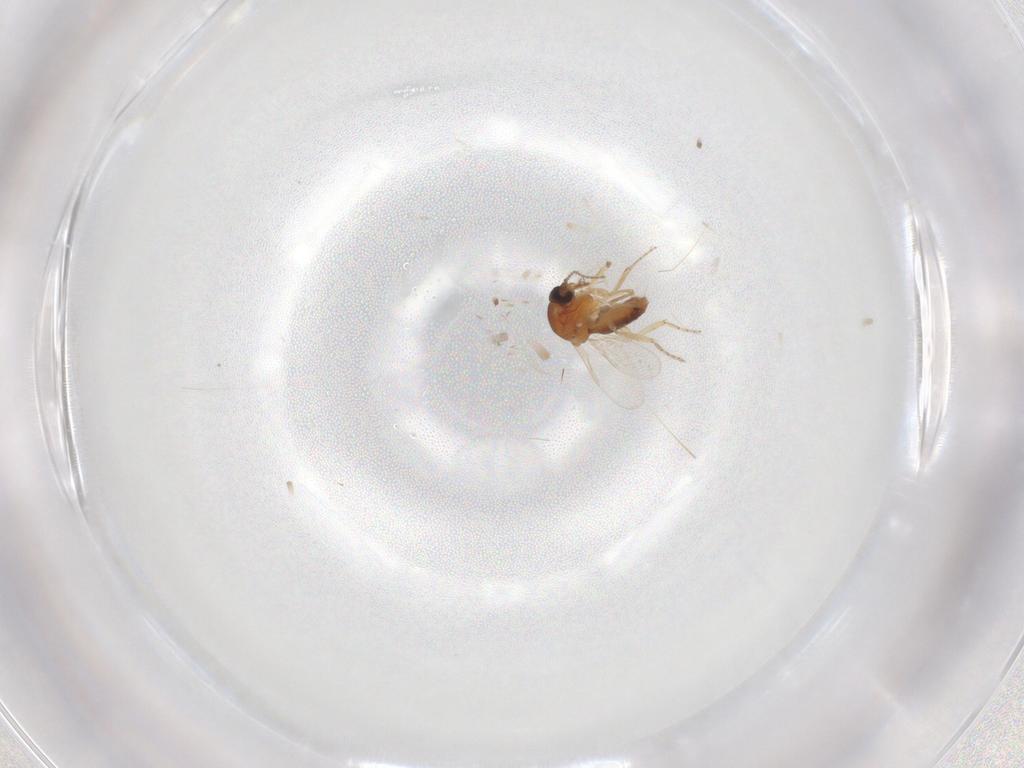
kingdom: Animalia
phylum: Arthropoda
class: Insecta
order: Diptera
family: Ceratopogonidae
